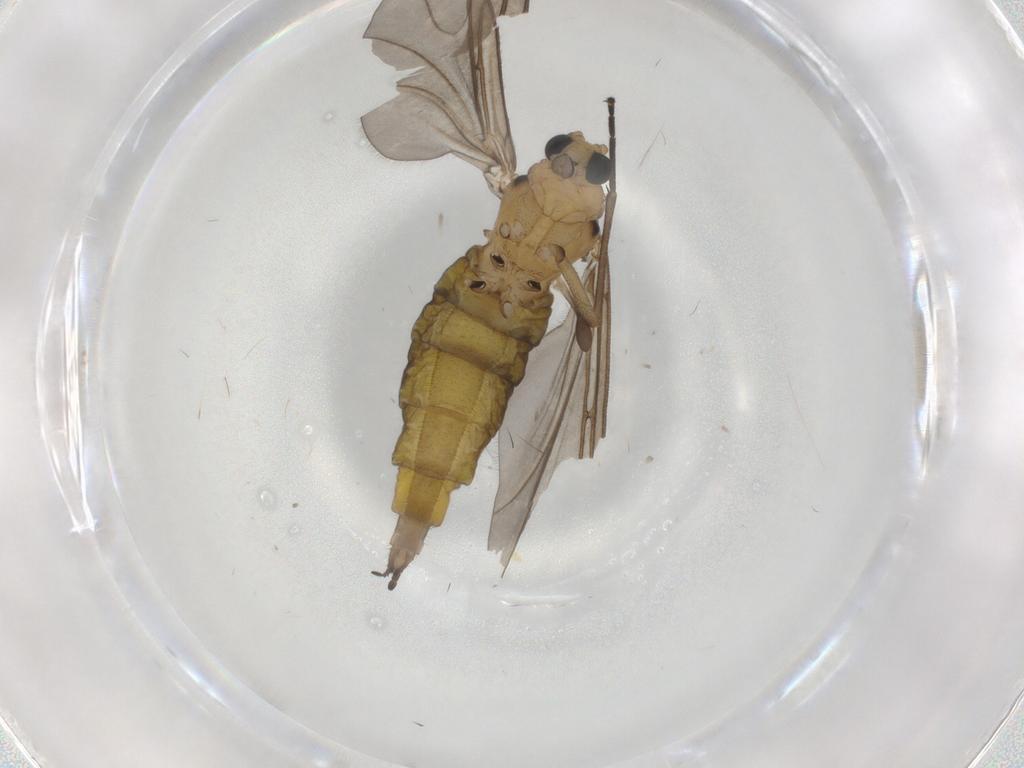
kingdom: Animalia
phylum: Arthropoda
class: Insecta
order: Diptera
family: Sciaridae
